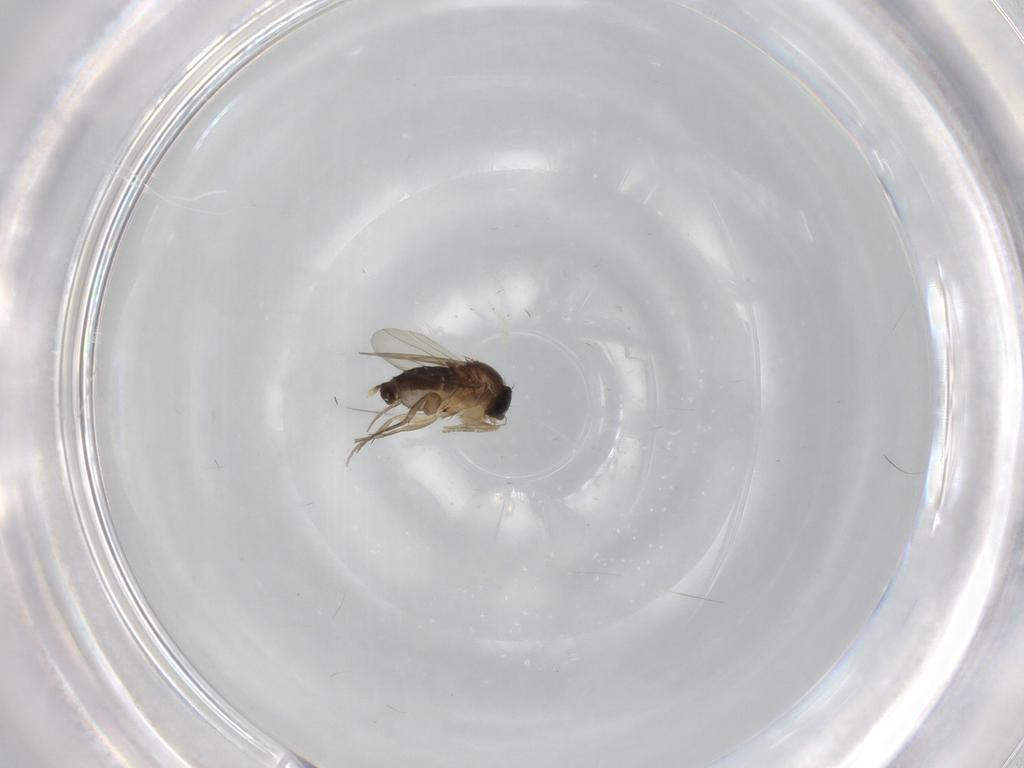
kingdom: Animalia
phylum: Arthropoda
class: Insecta
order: Diptera
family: Phoridae
